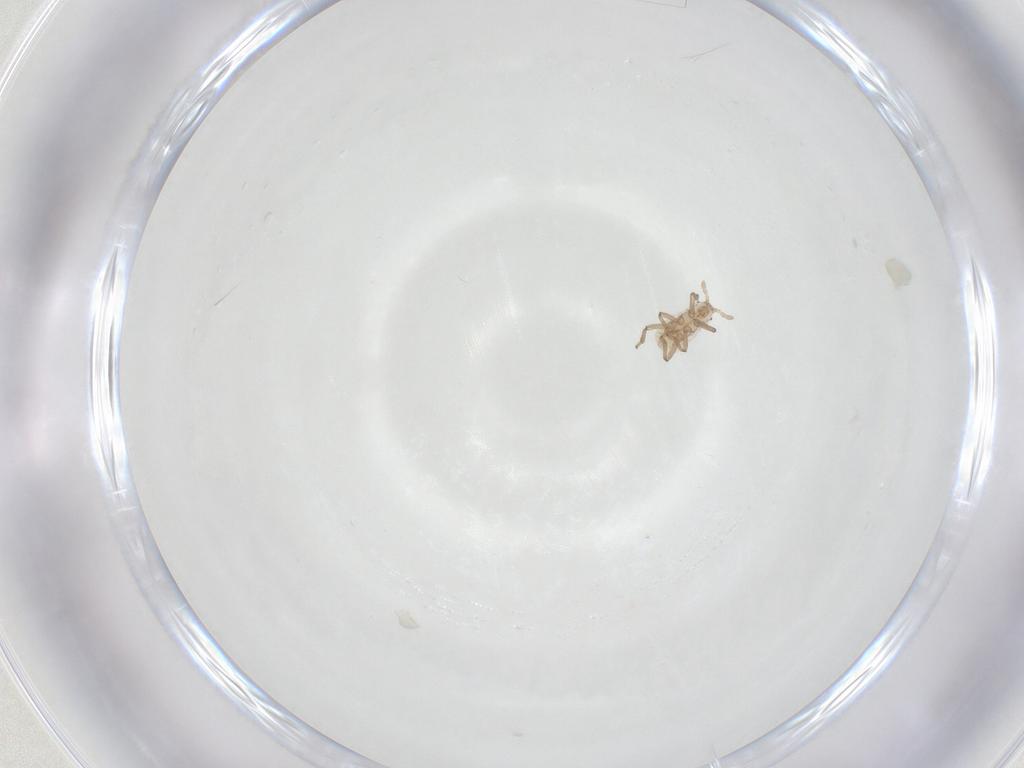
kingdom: Animalia
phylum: Arthropoda
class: Insecta
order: Hemiptera
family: Aphididae
